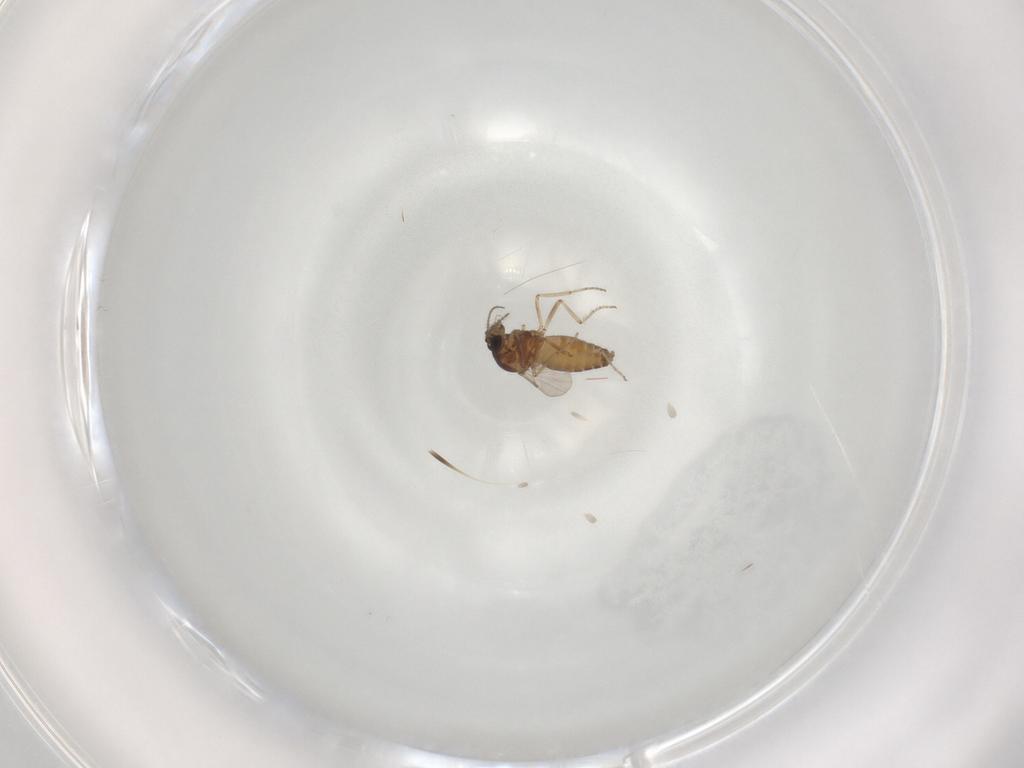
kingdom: Animalia
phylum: Arthropoda
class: Insecta
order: Diptera
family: Ceratopogonidae
